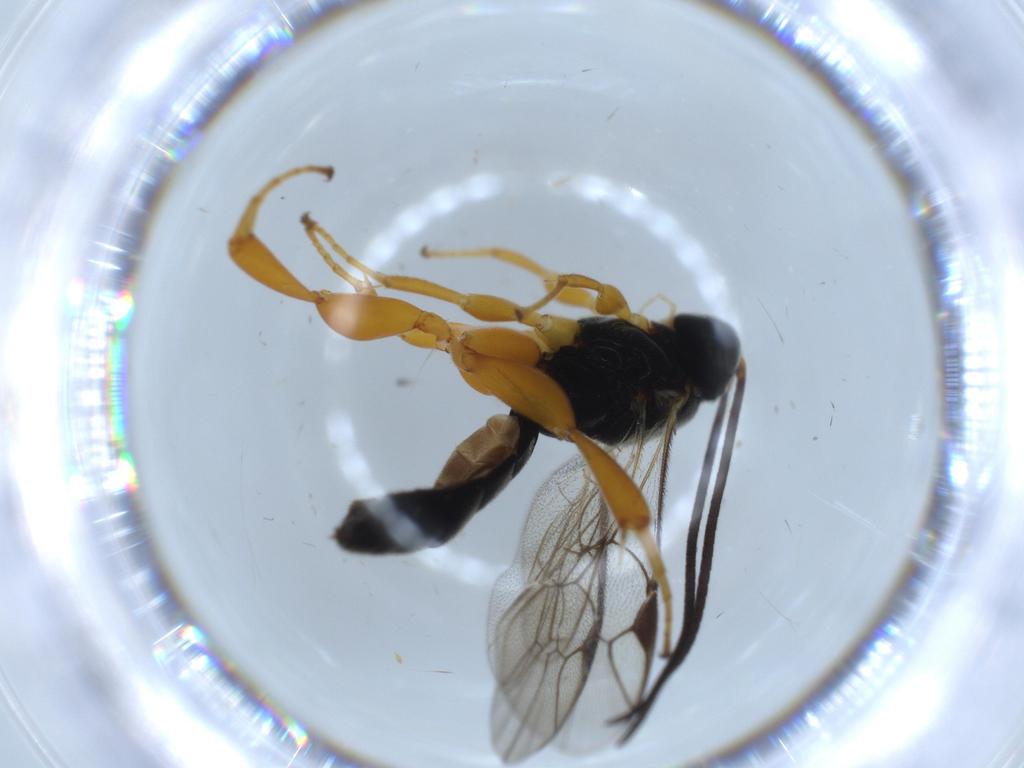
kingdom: Animalia
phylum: Arthropoda
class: Insecta
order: Hymenoptera
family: Ichneumonidae
